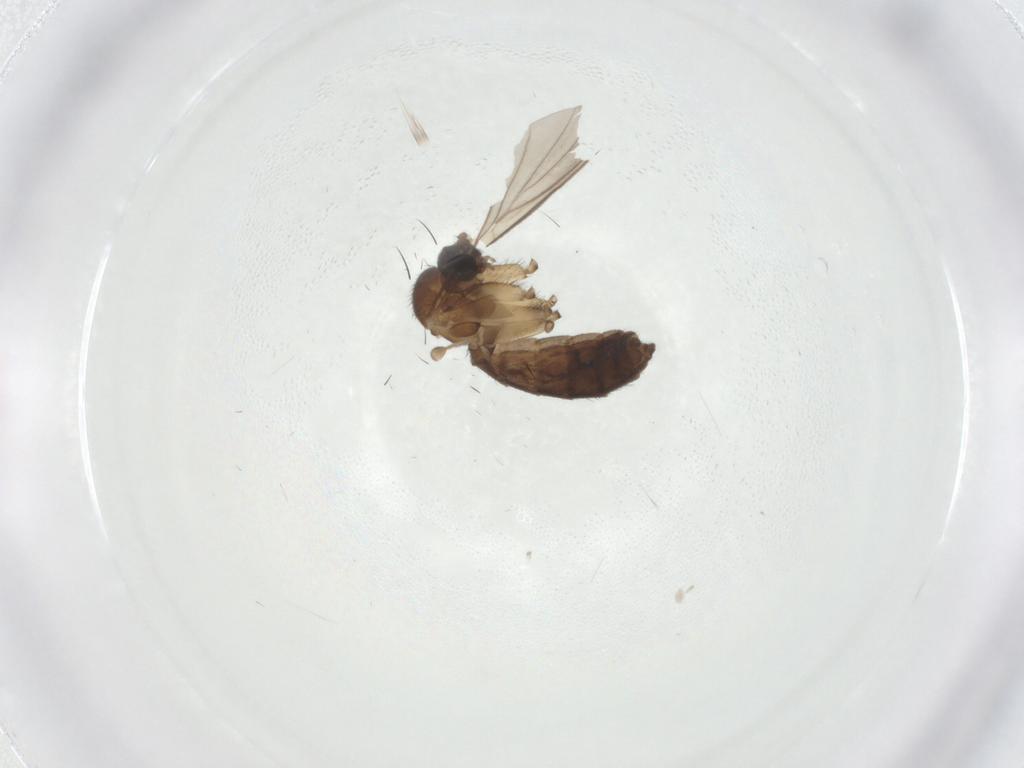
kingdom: Animalia
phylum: Arthropoda
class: Insecta
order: Diptera
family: Keroplatidae
